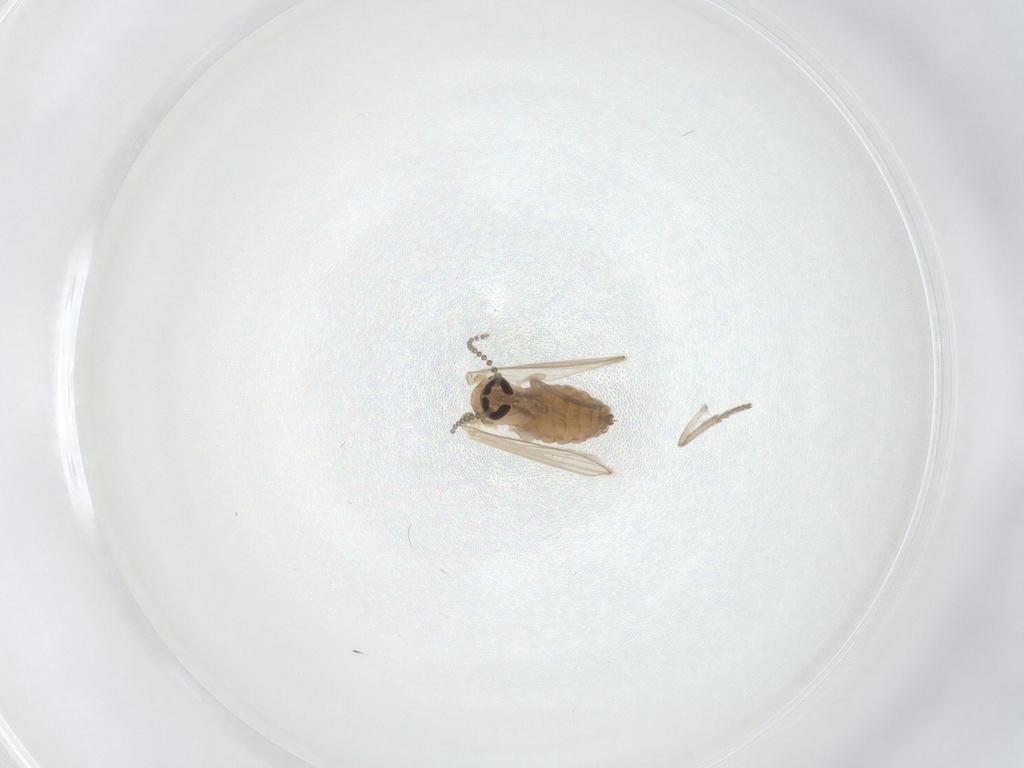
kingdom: Animalia
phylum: Arthropoda
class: Insecta
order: Diptera
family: Psychodidae
